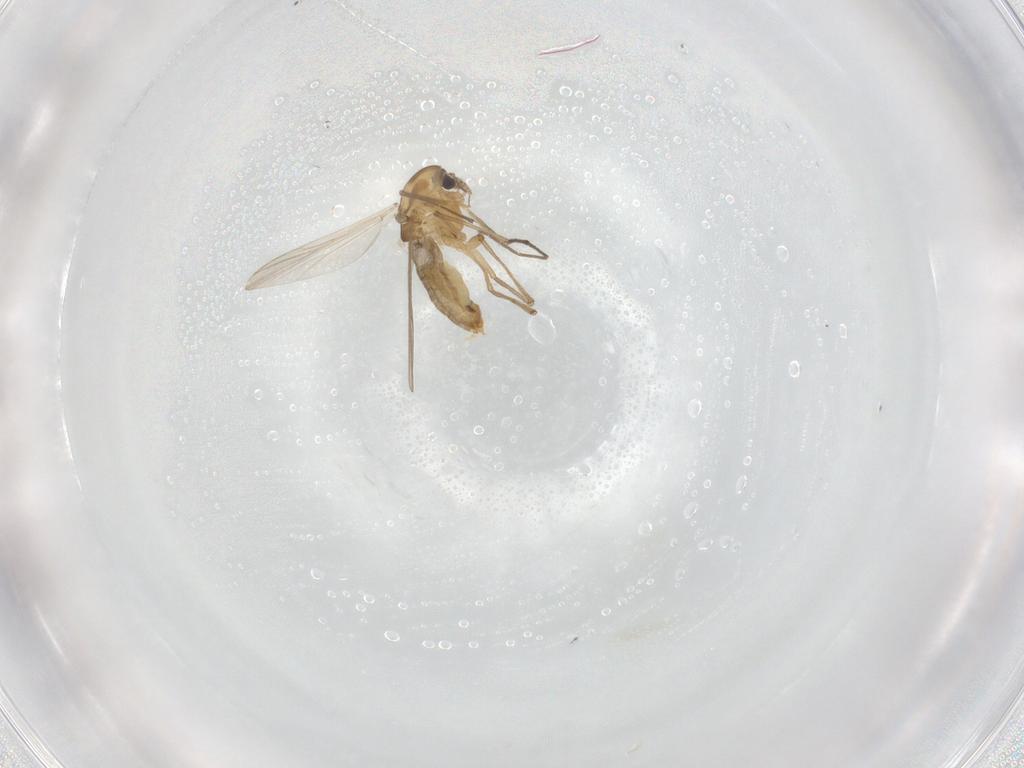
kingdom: Animalia
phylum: Arthropoda
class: Insecta
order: Diptera
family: Chironomidae
